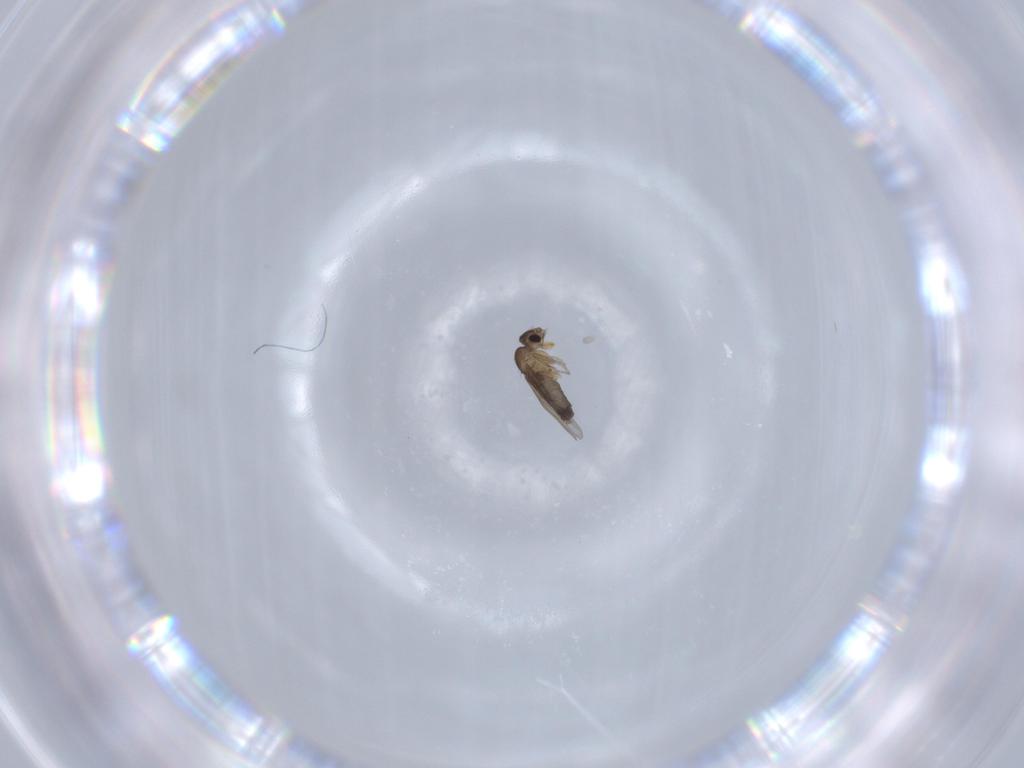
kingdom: Animalia
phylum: Arthropoda
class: Insecta
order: Diptera
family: Phoridae
